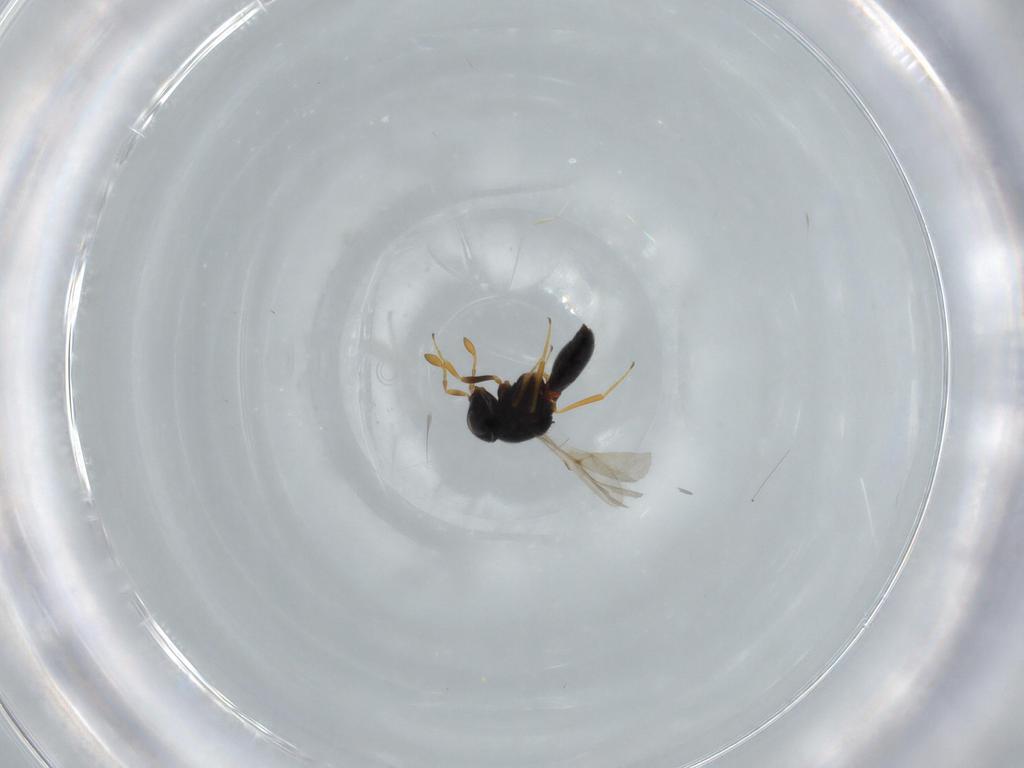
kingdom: Animalia
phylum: Arthropoda
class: Insecta
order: Hymenoptera
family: Scelionidae
